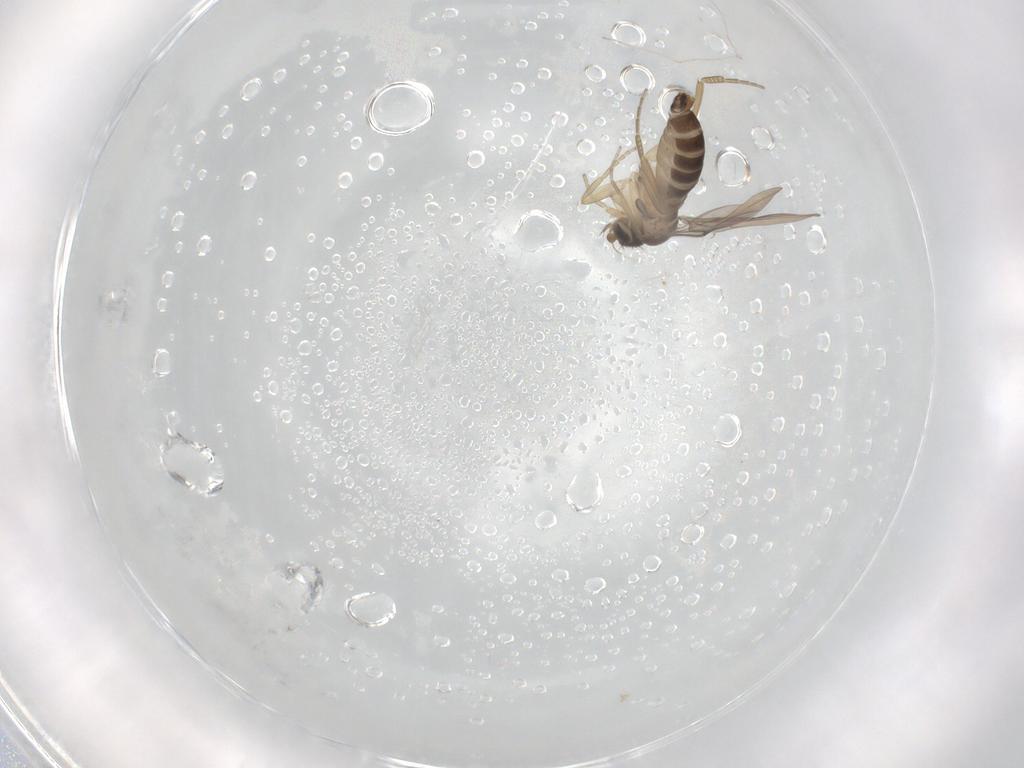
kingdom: Animalia
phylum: Arthropoda
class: Insecta
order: Diptera
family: Phoridae
